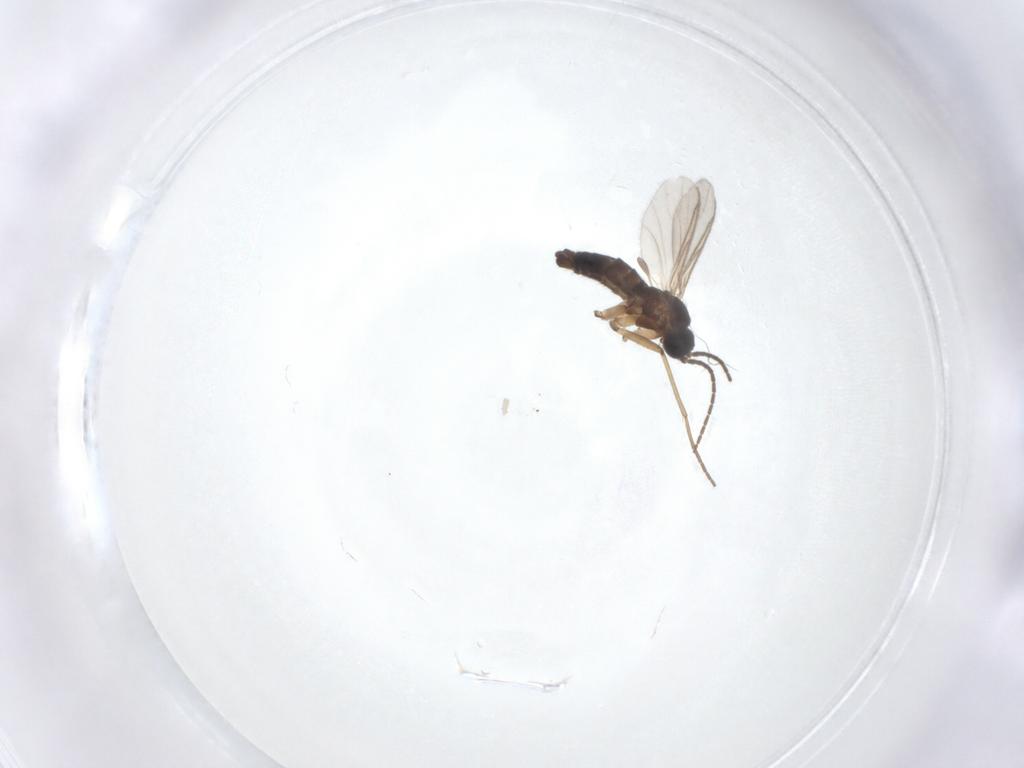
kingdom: Animalia
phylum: Arthropoda
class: Insecta
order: Diptera
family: Sciaridae
